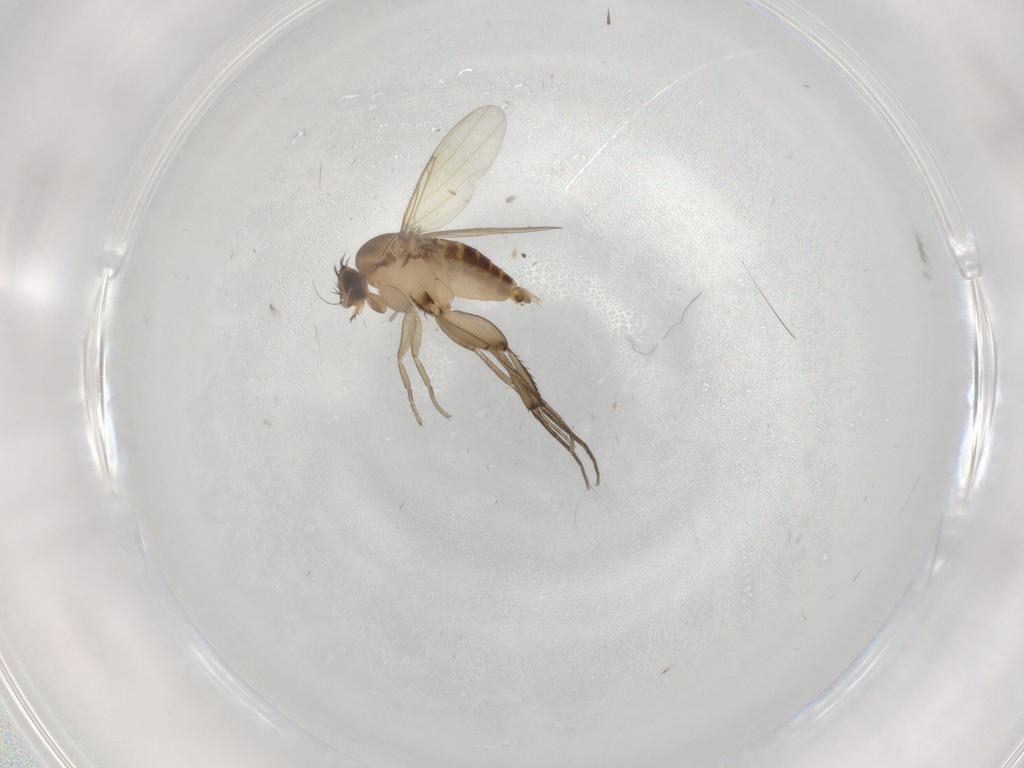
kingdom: Animalia
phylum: Arthropoda
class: Insecta
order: Diptera
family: Phoridae
